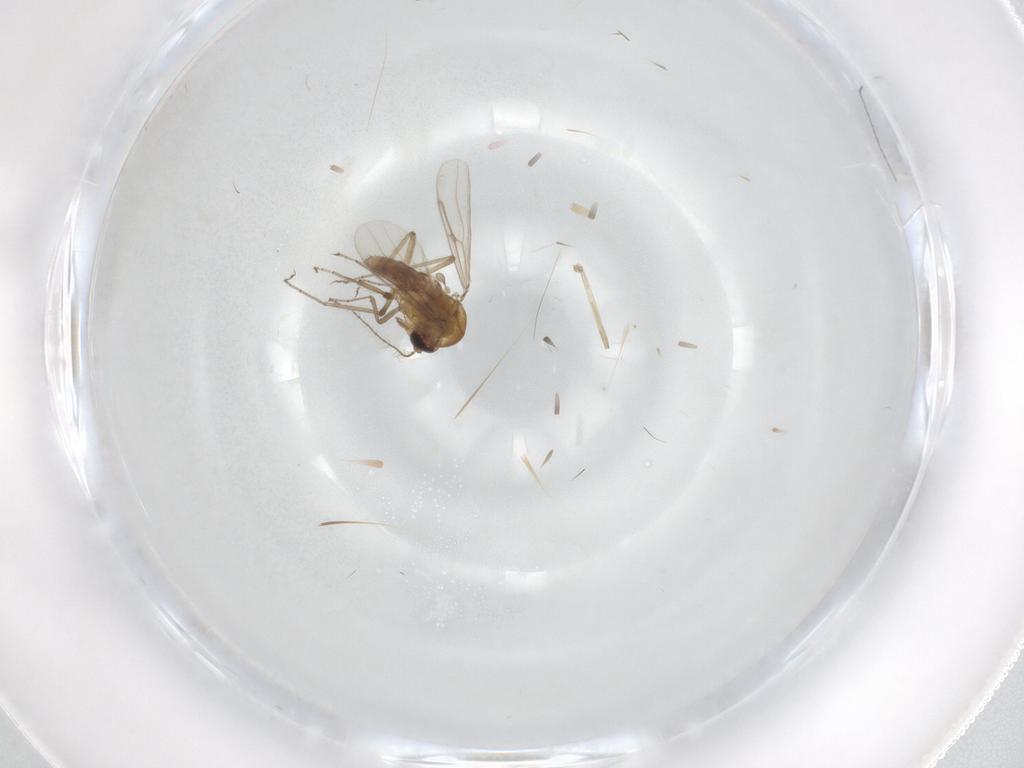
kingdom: Animalia
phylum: Arthropoda
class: Insecta
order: Diptera
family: Ceratopogonidae
